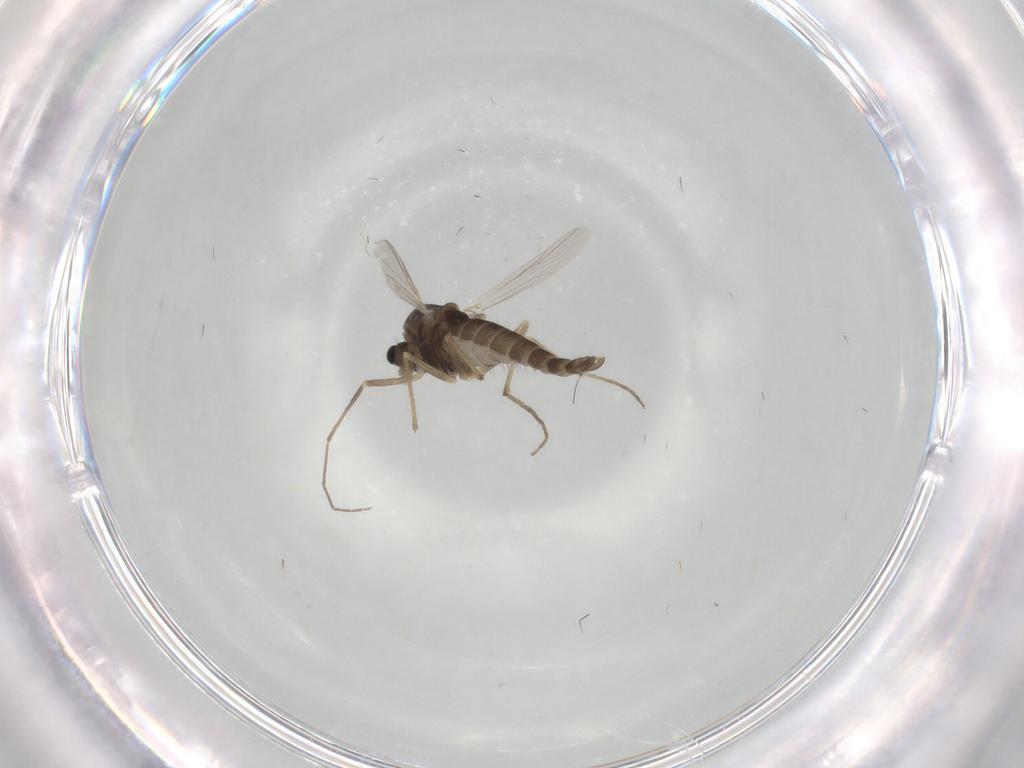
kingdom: Animalia
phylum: Arthropoda
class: Insecta
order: Diptera
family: Chironomidae
